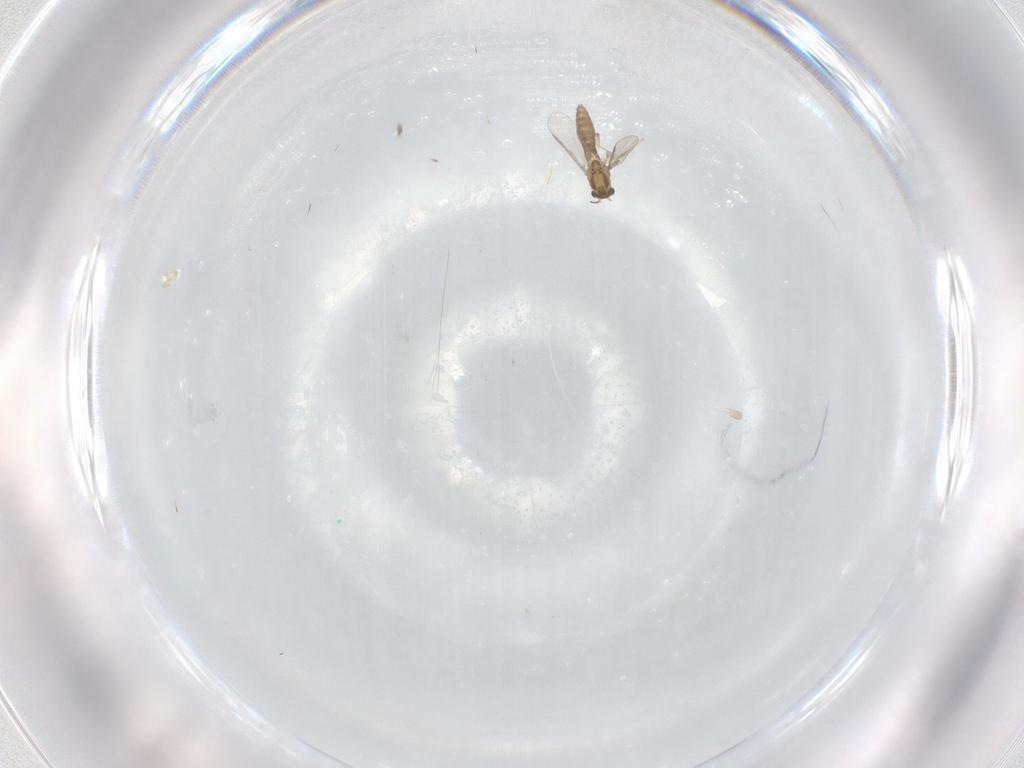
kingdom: Animalia
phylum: Arthropoda
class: Insecta
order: Diptera
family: Chironomidae
